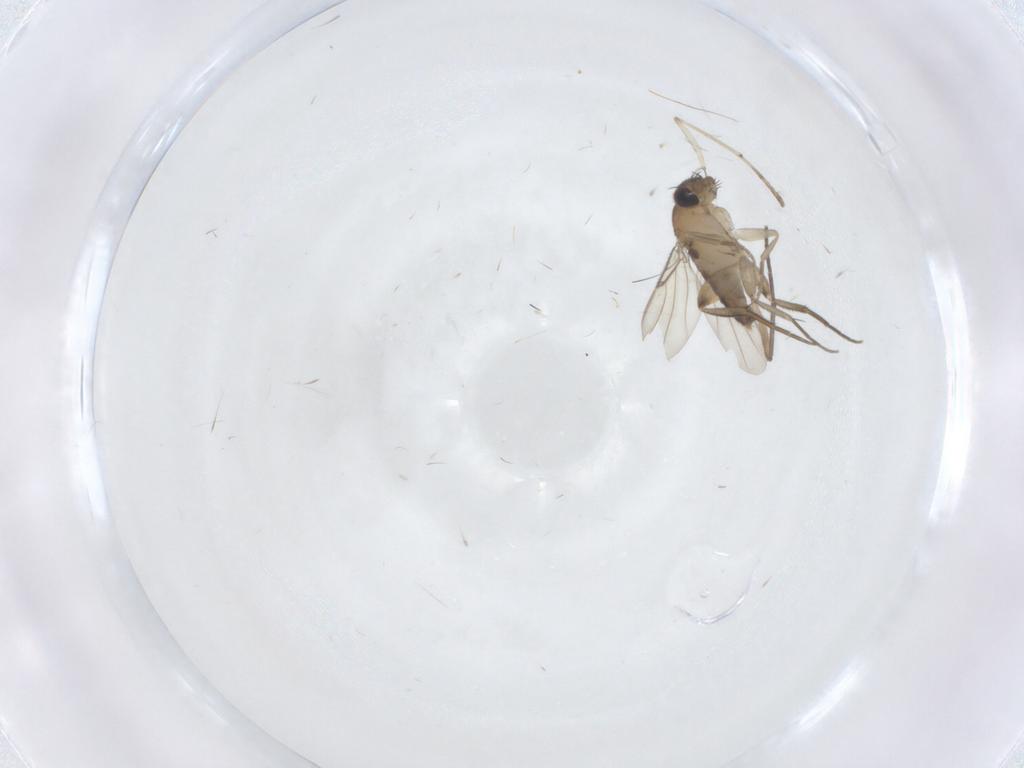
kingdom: Animalia
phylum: Arthropoda
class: Insecta
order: Diptera
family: Phoridae
